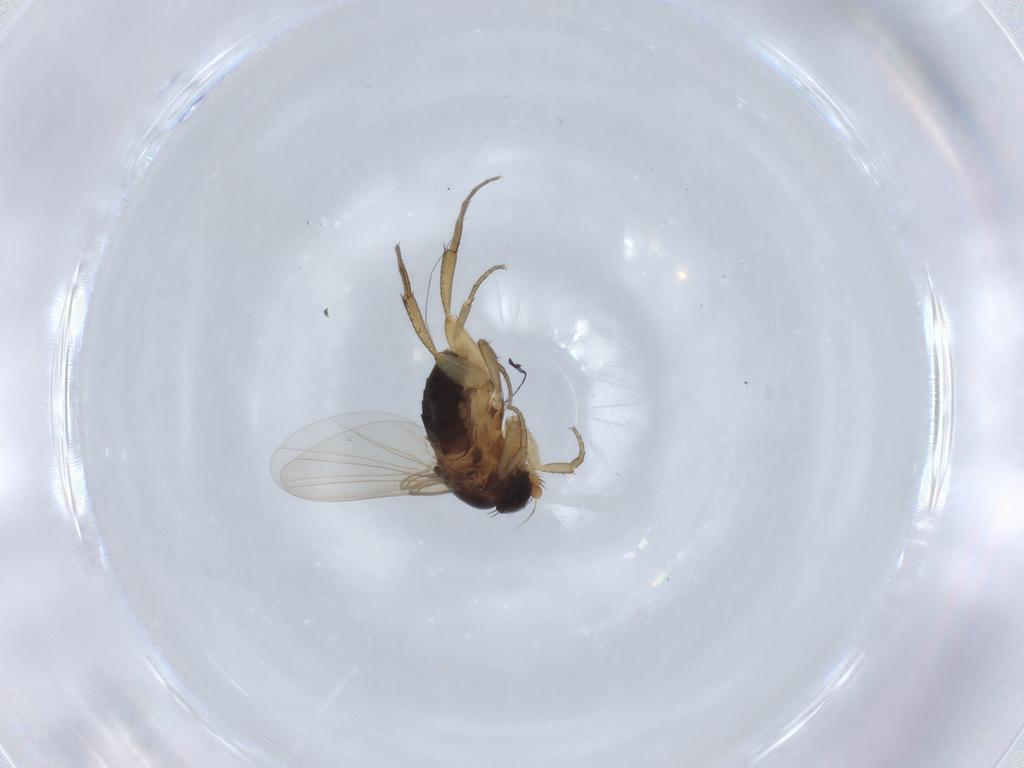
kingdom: Animalia
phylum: Arthropoda
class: Insecta
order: Diptera
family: Phoridae
